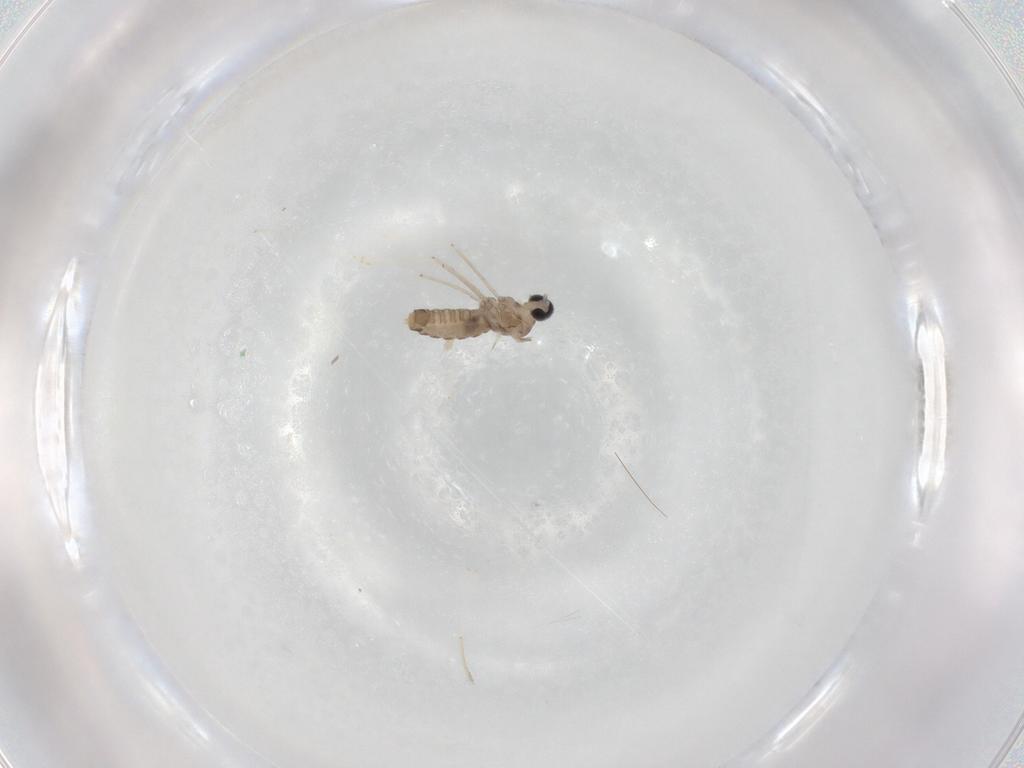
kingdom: Animalia
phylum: Arthropoda
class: Insecta
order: Diptera
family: Cecidomyiidae
